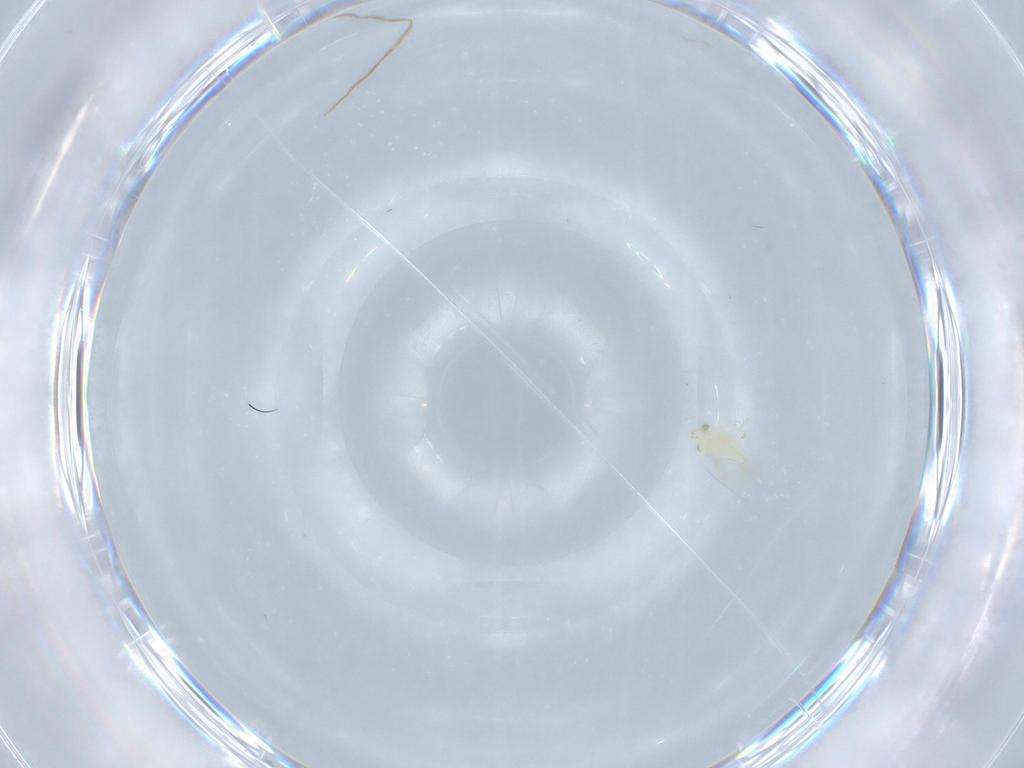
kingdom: Animalia
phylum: Arthropoda
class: Insecta
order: Hymenoptera
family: Aphelinidae
